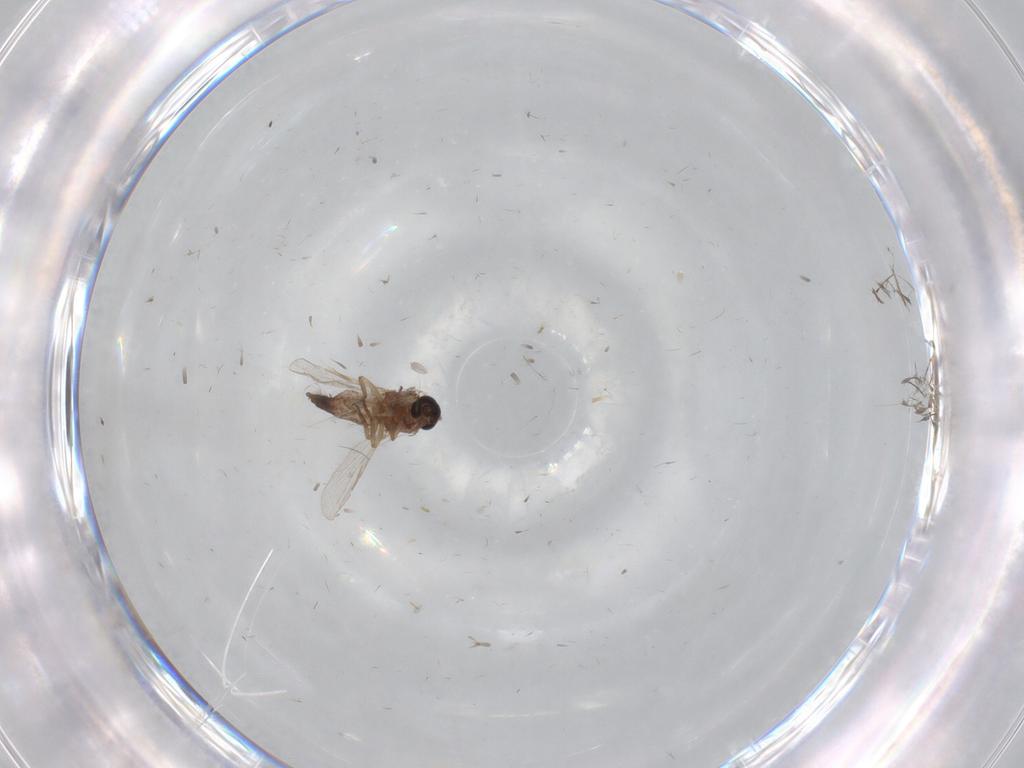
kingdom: Animalia
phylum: Arthropoda
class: Insecta
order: Diptera
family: Ceratopogonidae
